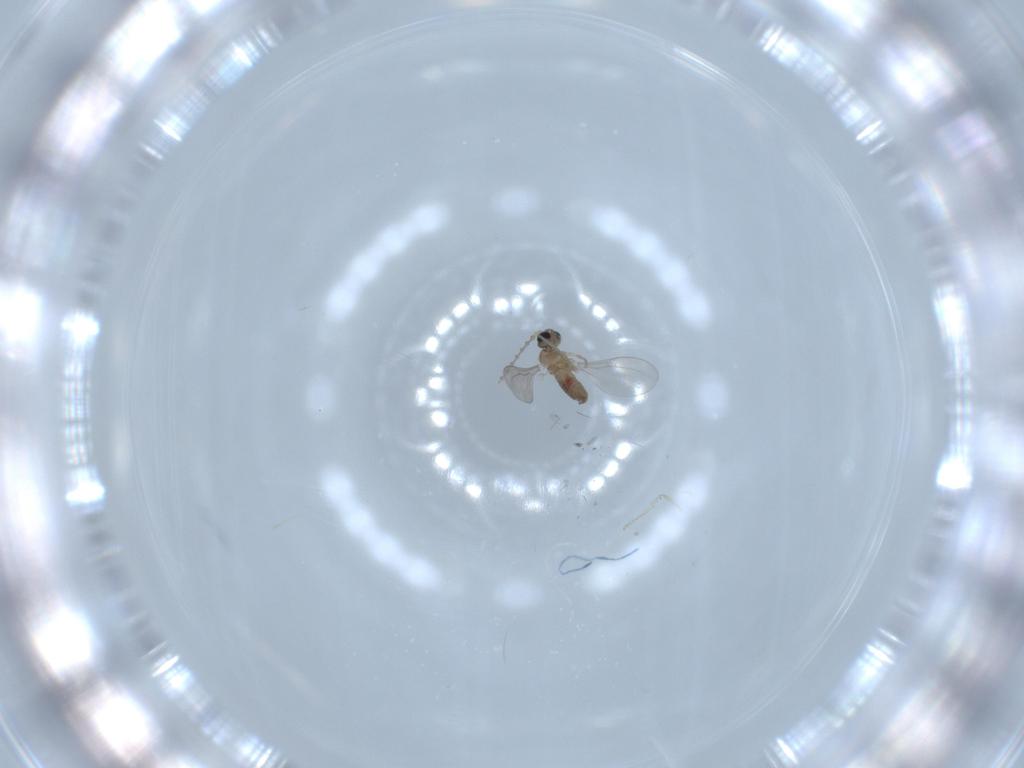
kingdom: Animalia
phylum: Arthropoda
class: Insecta
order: Diptera
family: Cecidomyiidae
